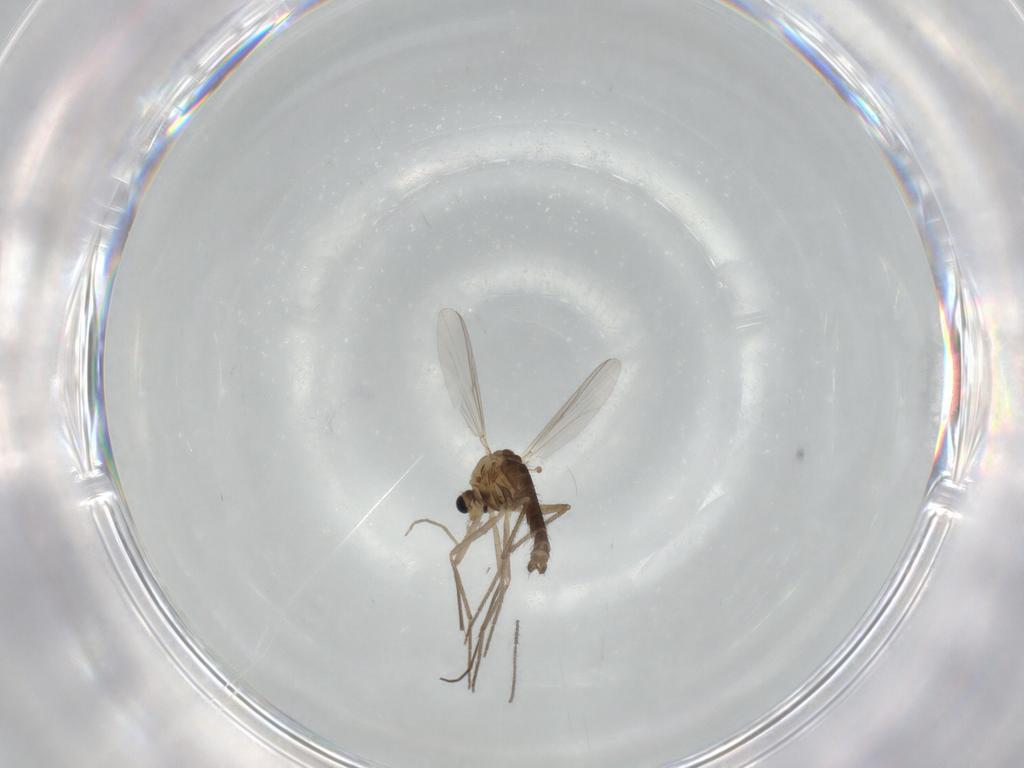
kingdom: Animalia
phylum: Arthropoda
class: Insecta
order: Diptera
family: Chironomidae
